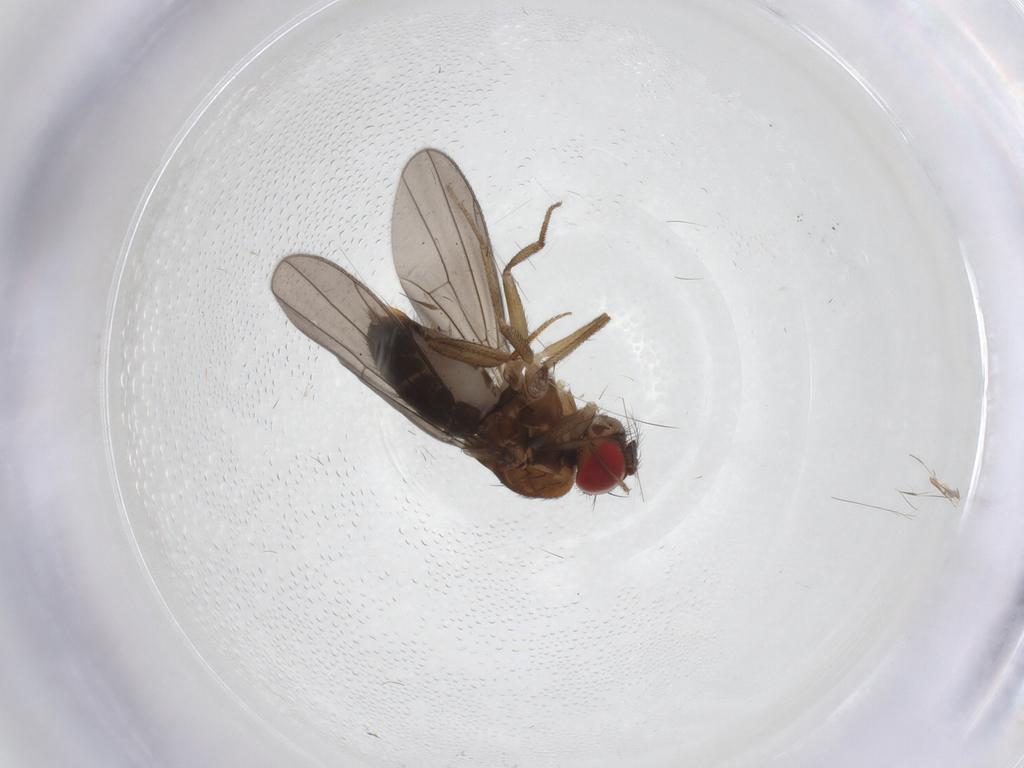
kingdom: Animalia
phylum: Arthropoda
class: Insecta
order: Diptera
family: Drosophilidae
